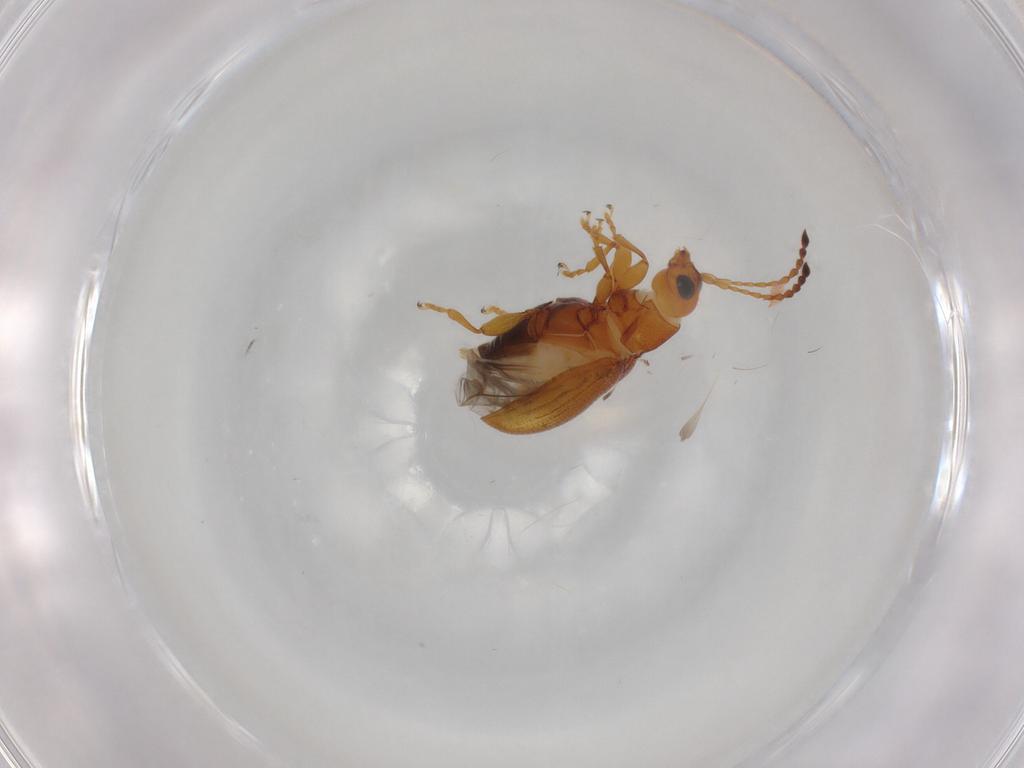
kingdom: Animalia
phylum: Arthropoda
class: Insecta
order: Coleoptera
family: Chrysomelidae
